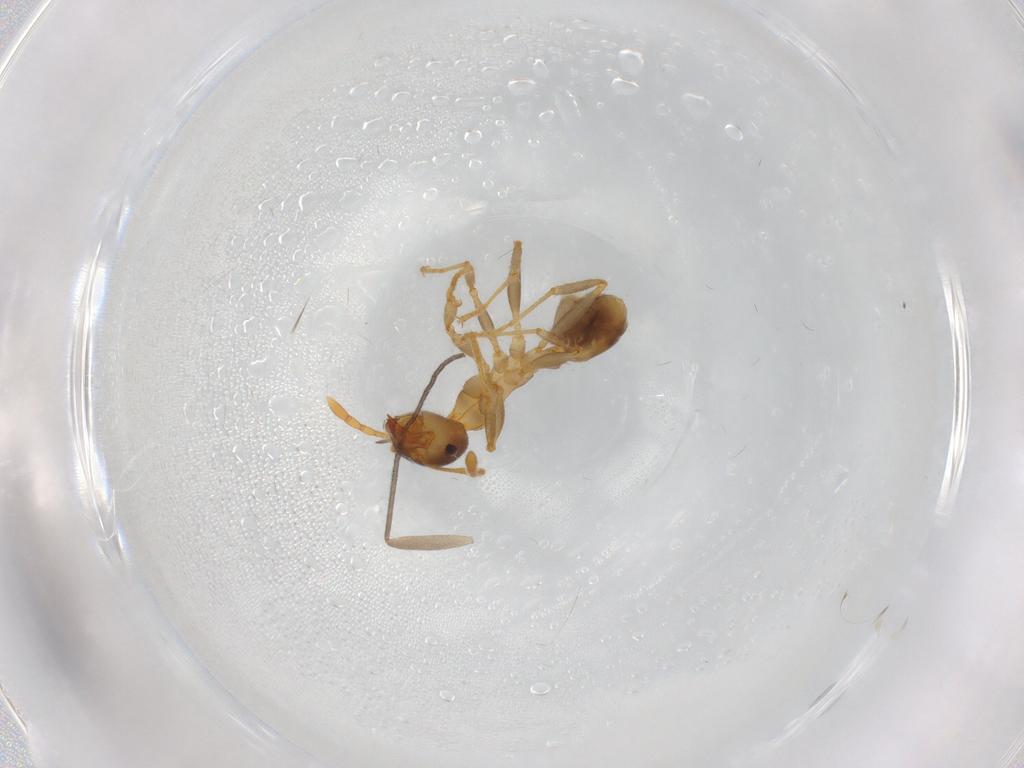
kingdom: Animalia
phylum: Arthropoda
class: Insecta
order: Hymenoptera
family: Formicidae
